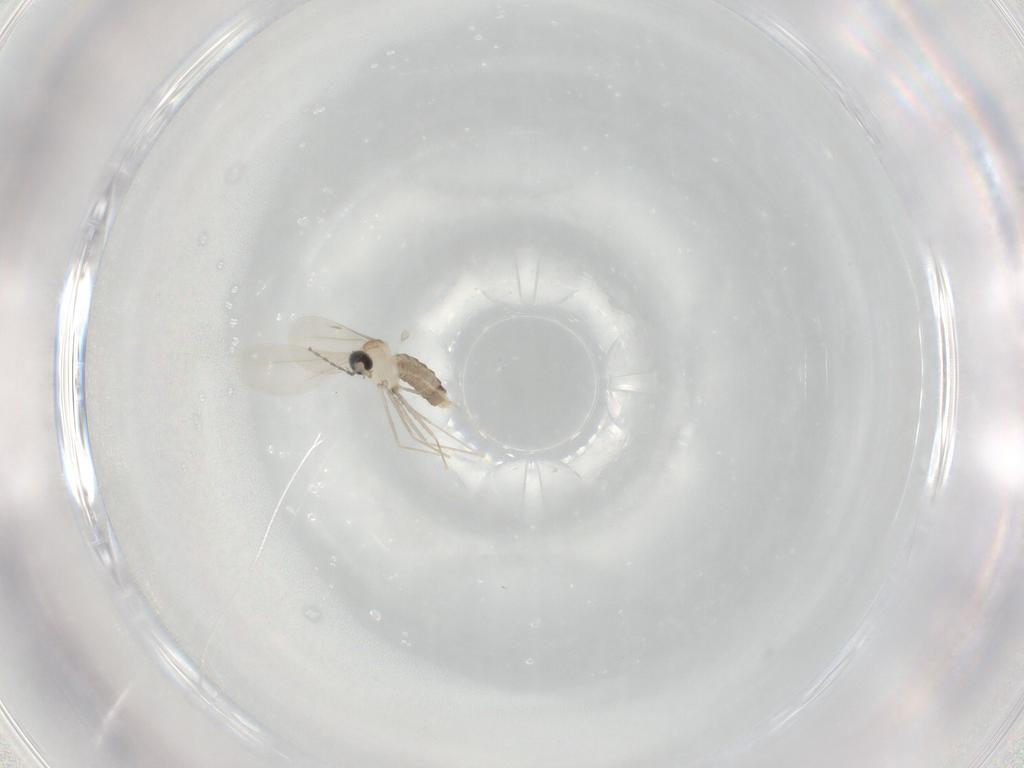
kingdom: Animalia
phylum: Arthropoda
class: Insecta
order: Diptera
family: Cecidomyiidae
